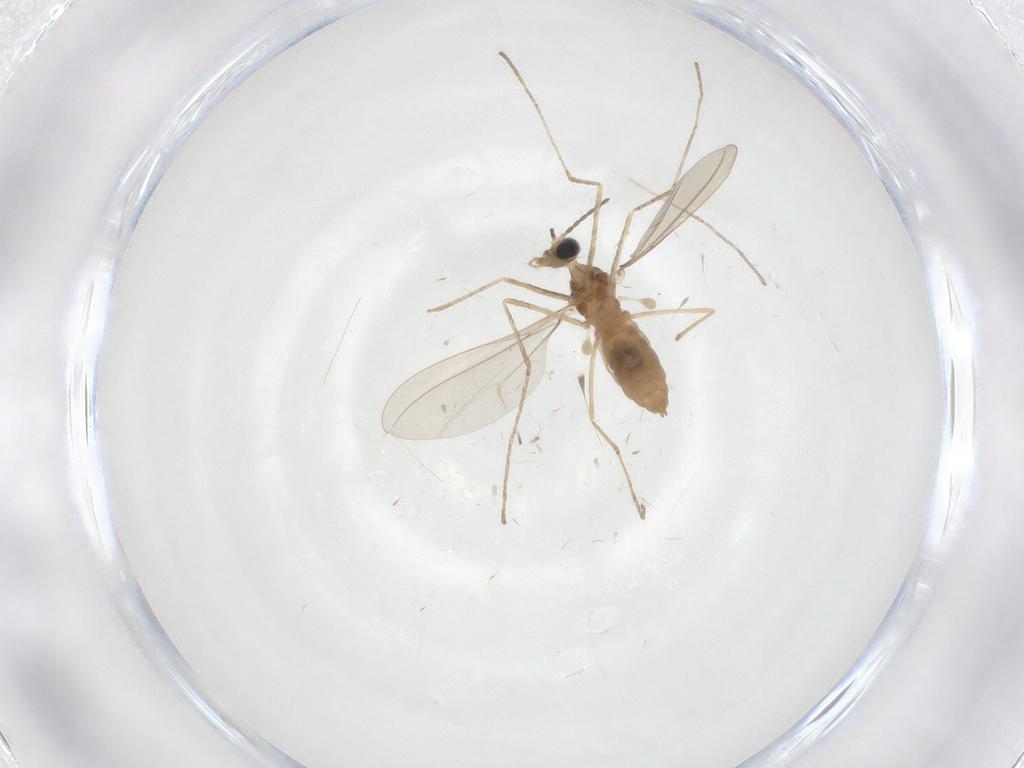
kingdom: Animalia
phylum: Arthropoda
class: Insecta
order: Diptera
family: Cecidomyiidae
